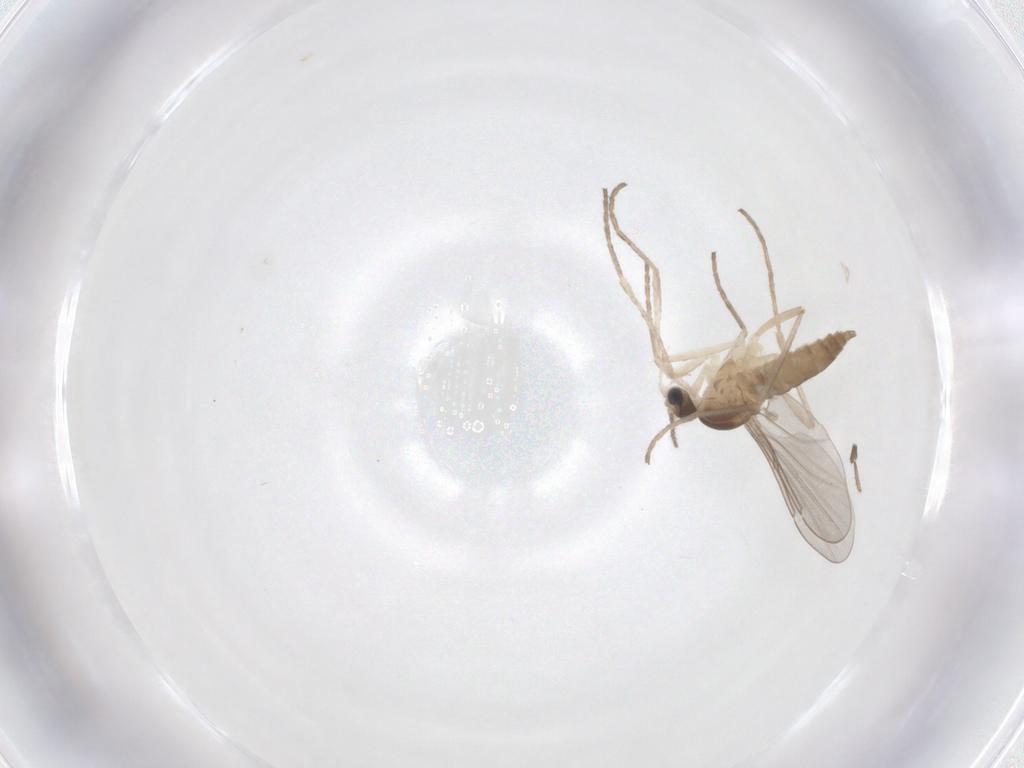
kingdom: Animalia
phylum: Arthropoda
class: Insecta
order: Diptera
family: Cecidomyiidae
